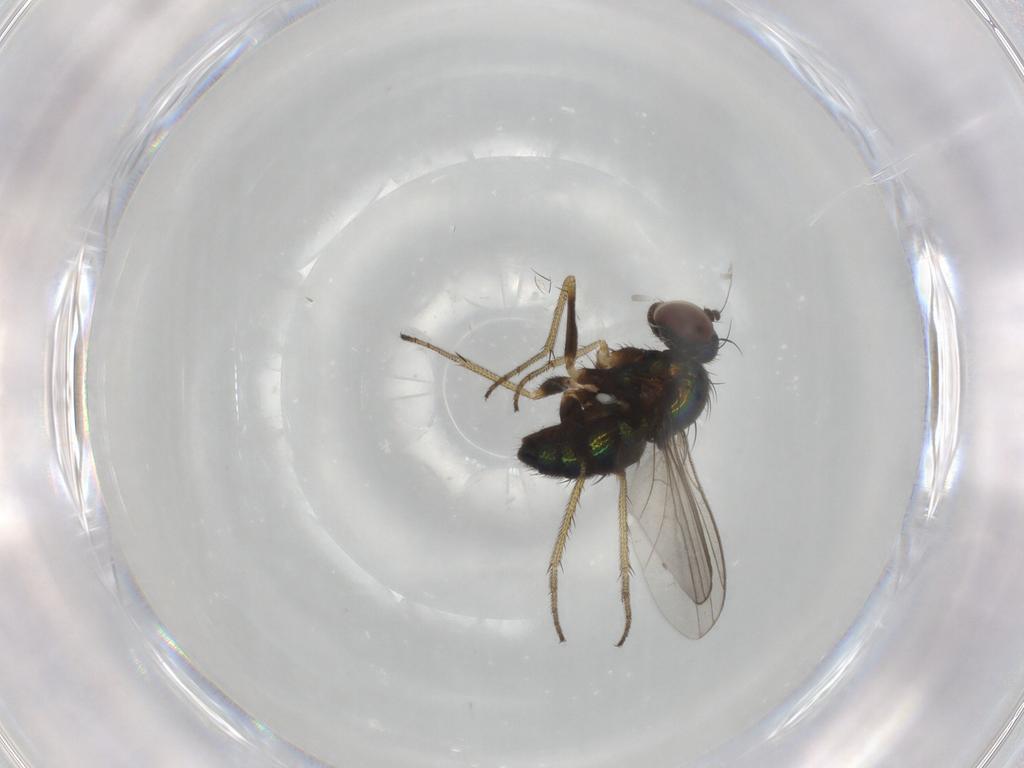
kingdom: Animalia
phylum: Arthropoda
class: Insecta
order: Diptera
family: Dolichopodidae
